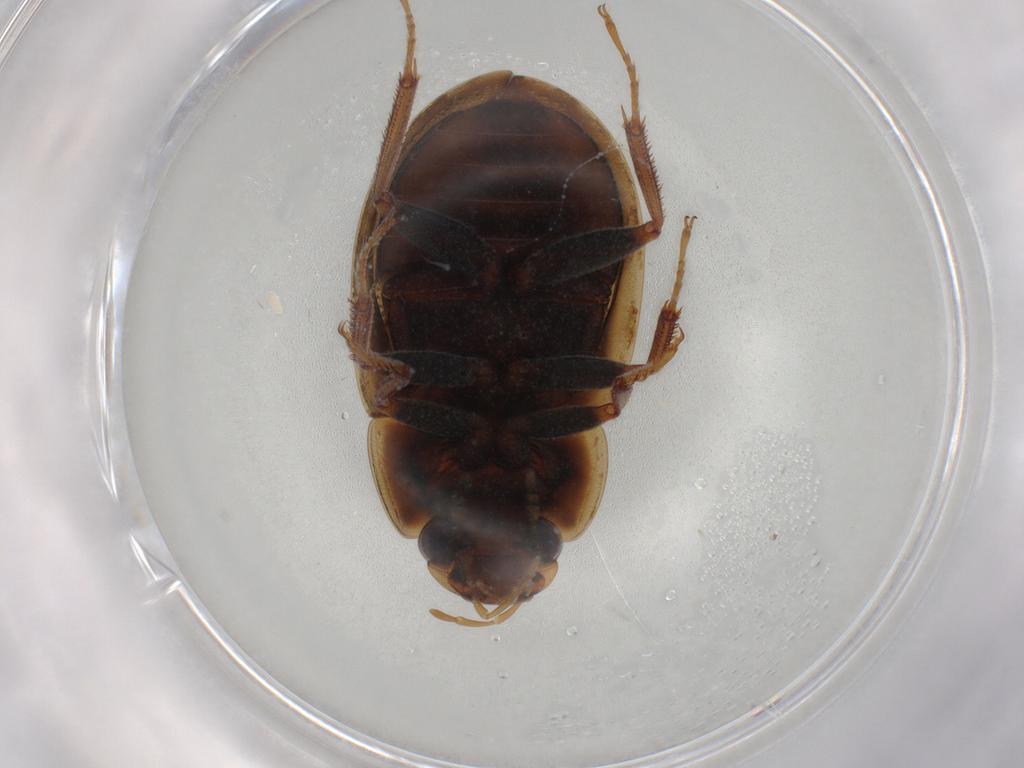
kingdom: Animalia
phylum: Arthropoda
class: Insecta
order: Coleoptera
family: Hydrophilidae
